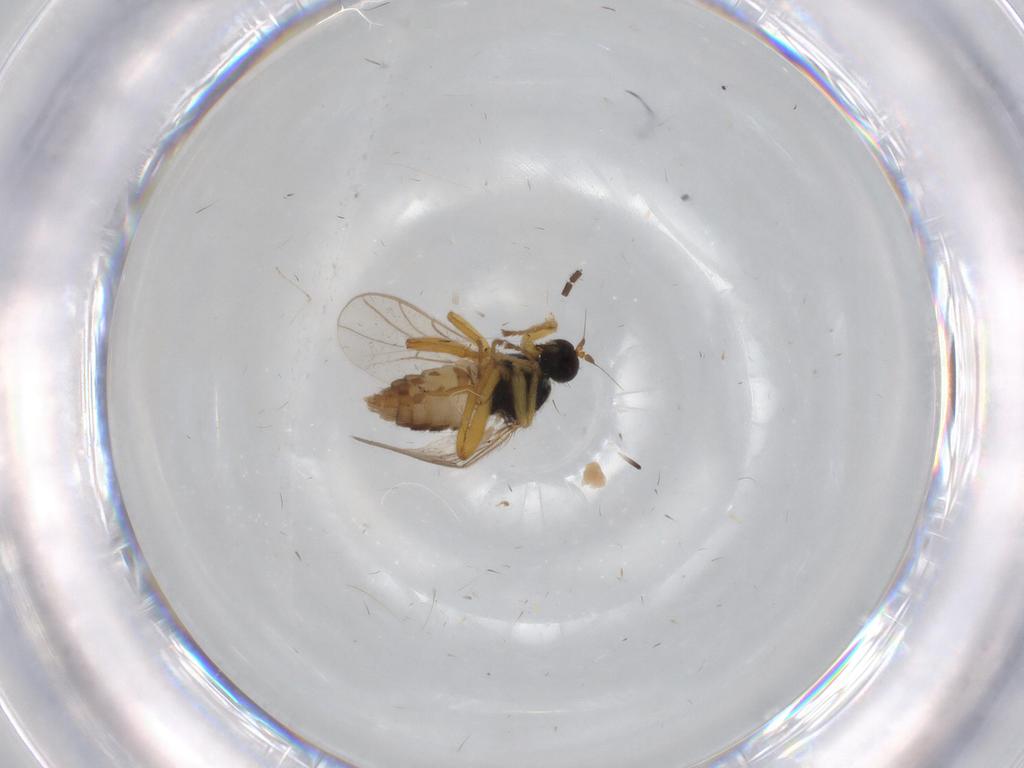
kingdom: Animalia
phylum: Arthropoda
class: Insecta
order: Diptera
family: Hybotidae
